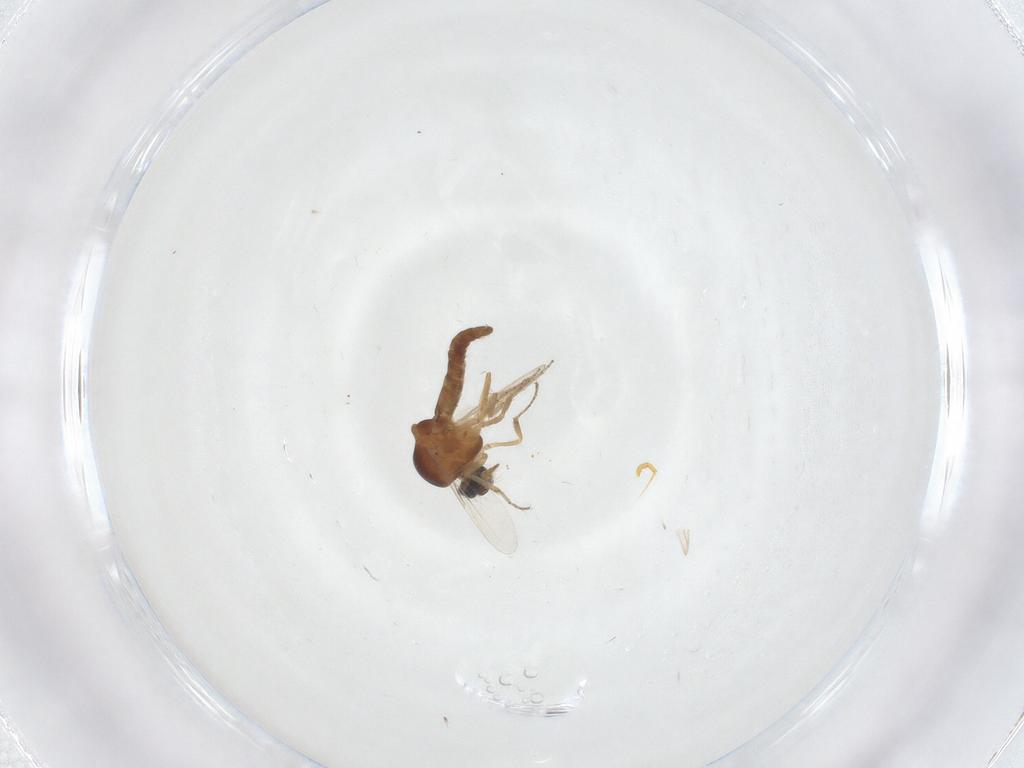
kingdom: Animalia
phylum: Arthropoda
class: Insecta
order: Diptera
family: Ceratopogonidae
